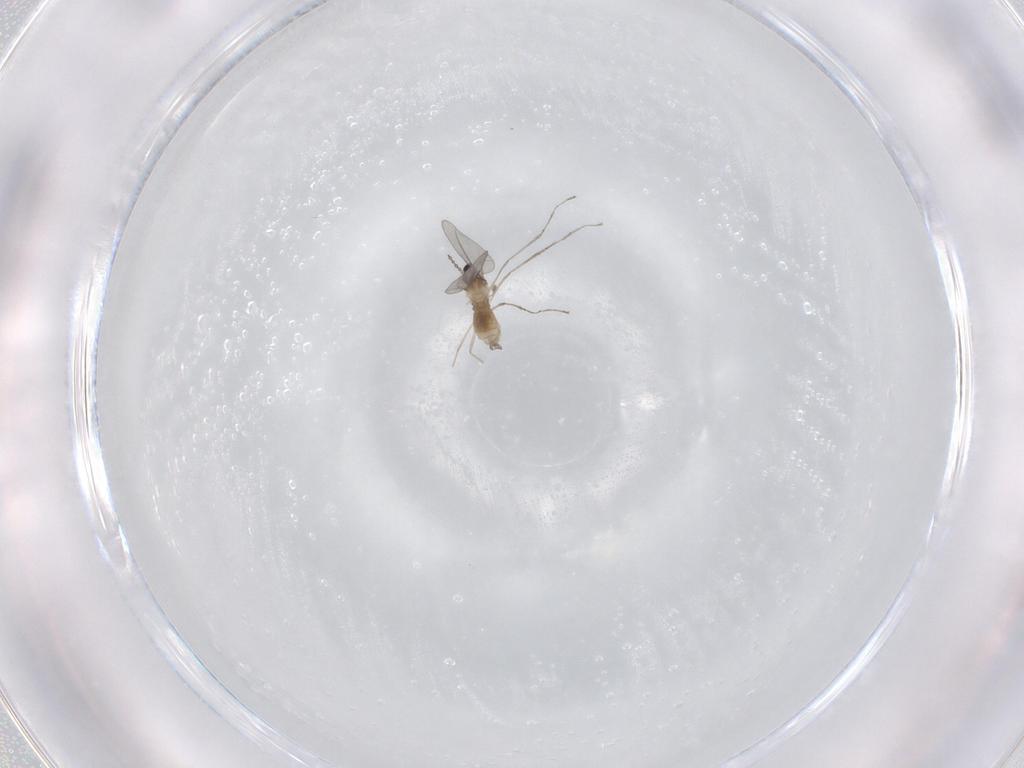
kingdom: Animalia
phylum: Arthropoda
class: Insecta
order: Diptera
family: Cecidomyiidae
